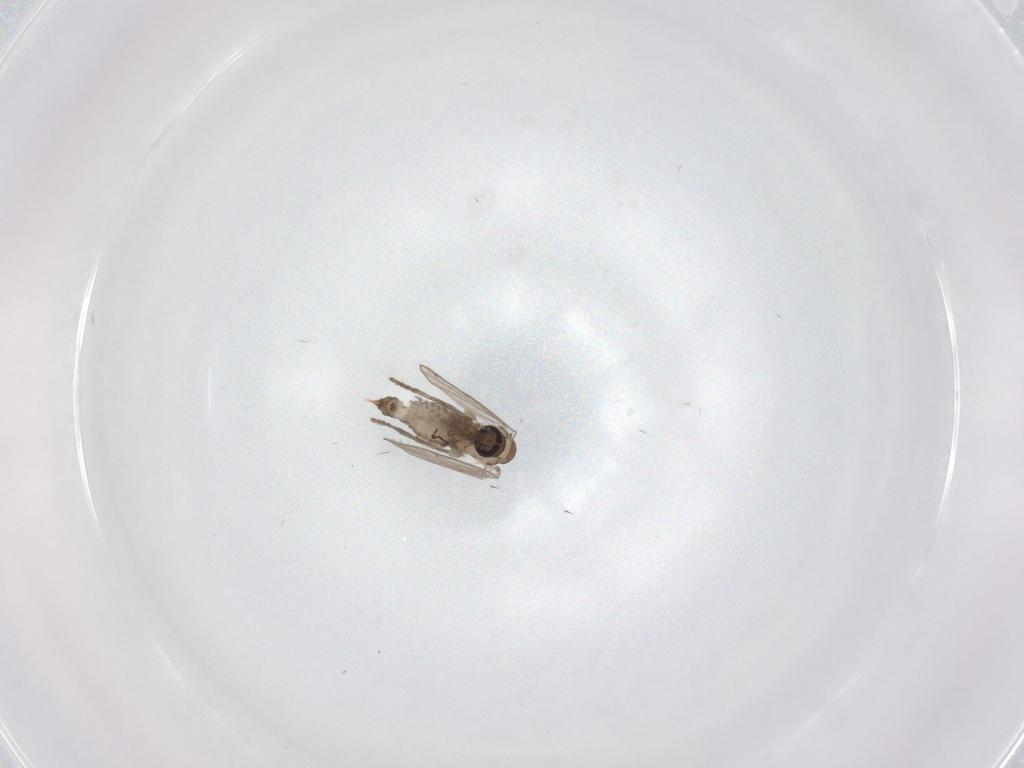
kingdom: Animalia
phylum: Arthropoda
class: Insecta
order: Diptera
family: Psychodidae
